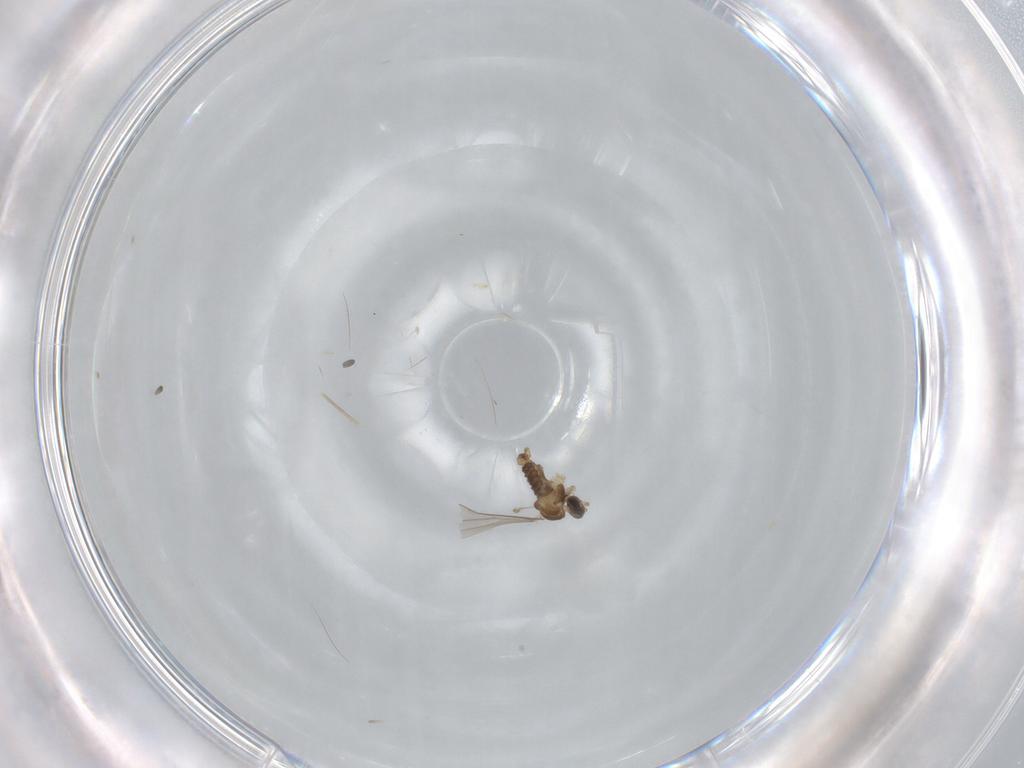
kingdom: Animalia
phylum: Arthropoda
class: Insecta
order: Diptera
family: Cecidomyiidae
